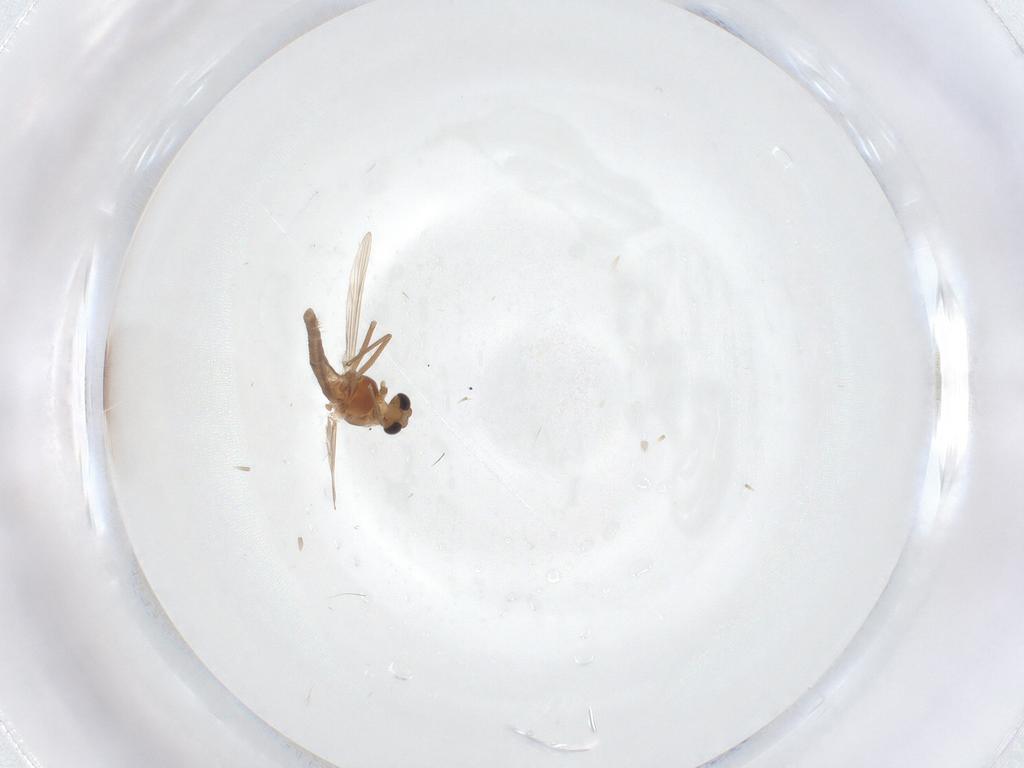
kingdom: Animalia
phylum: Arthropoda
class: Insecta
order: Diptera
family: Chironomidae
